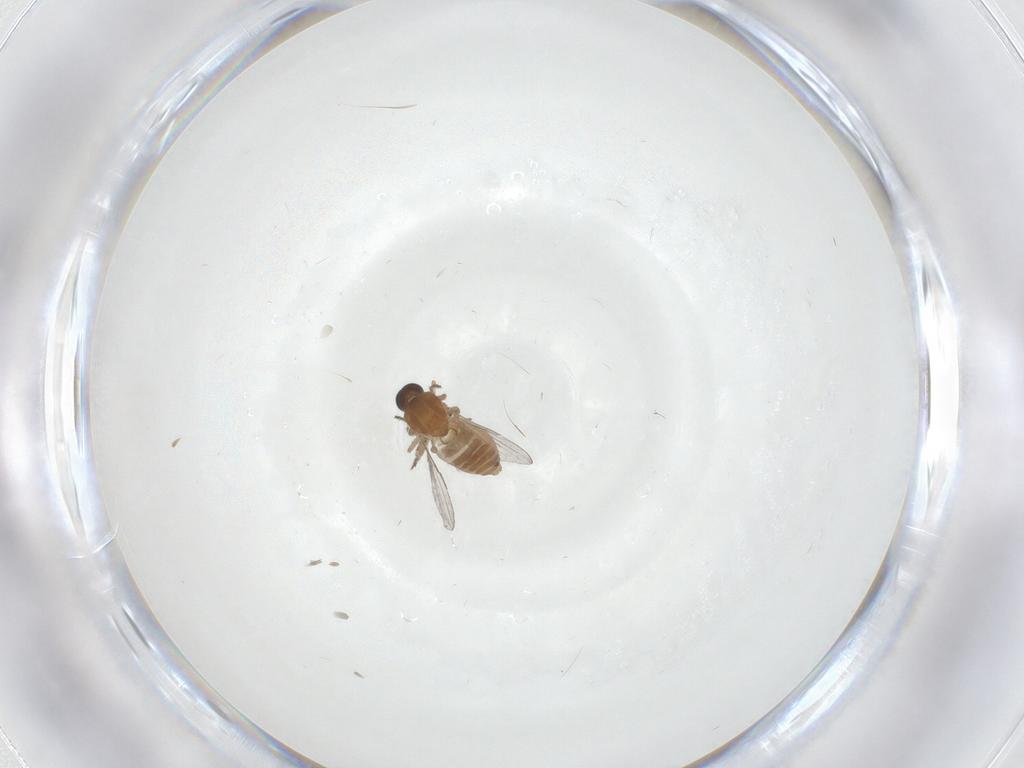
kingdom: Animalia
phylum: Arthropoda
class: Insecta
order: Diptera
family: Ceratopogonidae
